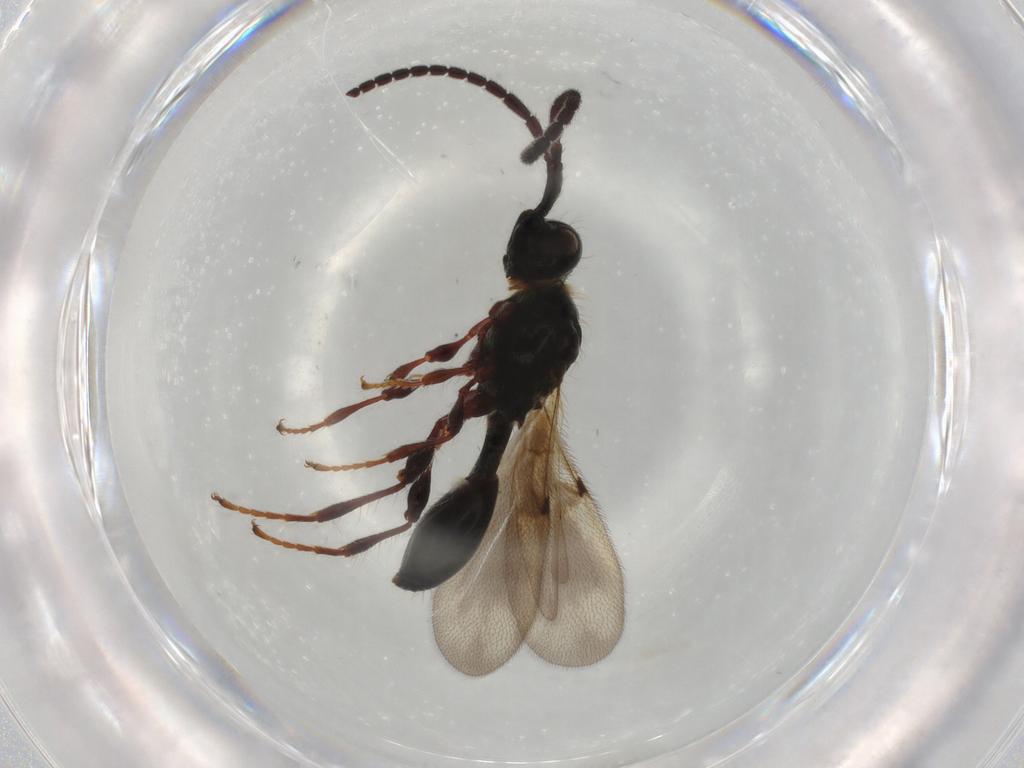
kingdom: Animalia
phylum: Arthropoda
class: Insecta
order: Hymenoptera
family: Diapriidae
